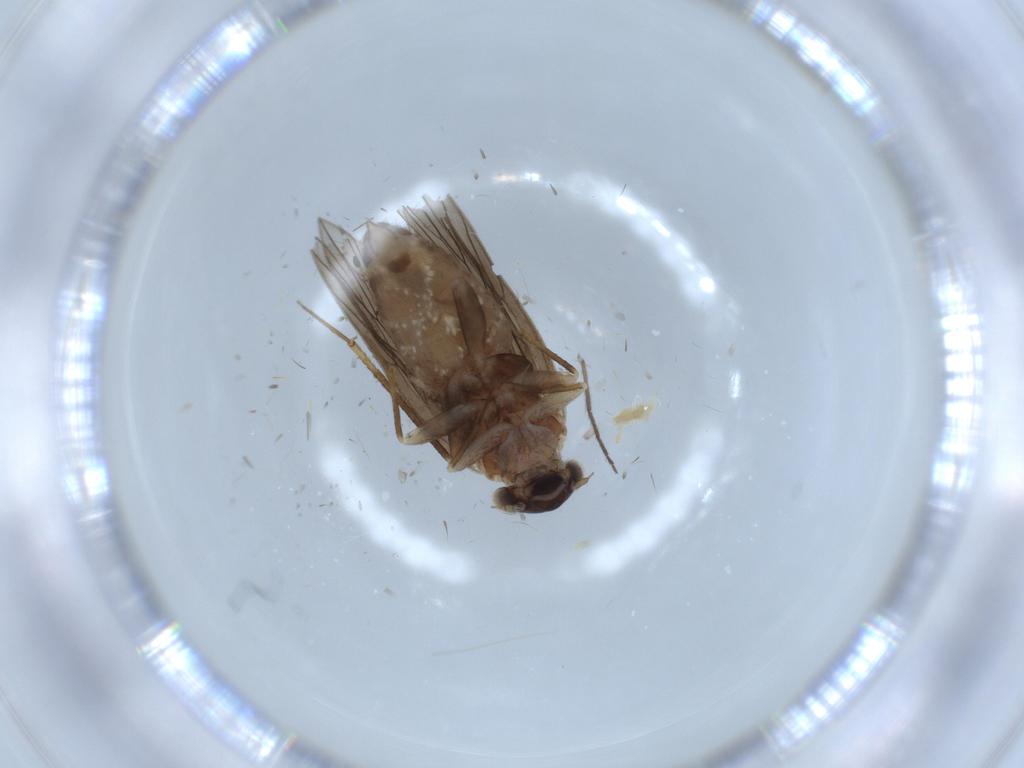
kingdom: Animalia
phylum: Arthropoda
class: Insecta
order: Psocodea
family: Lepidopsocidae
